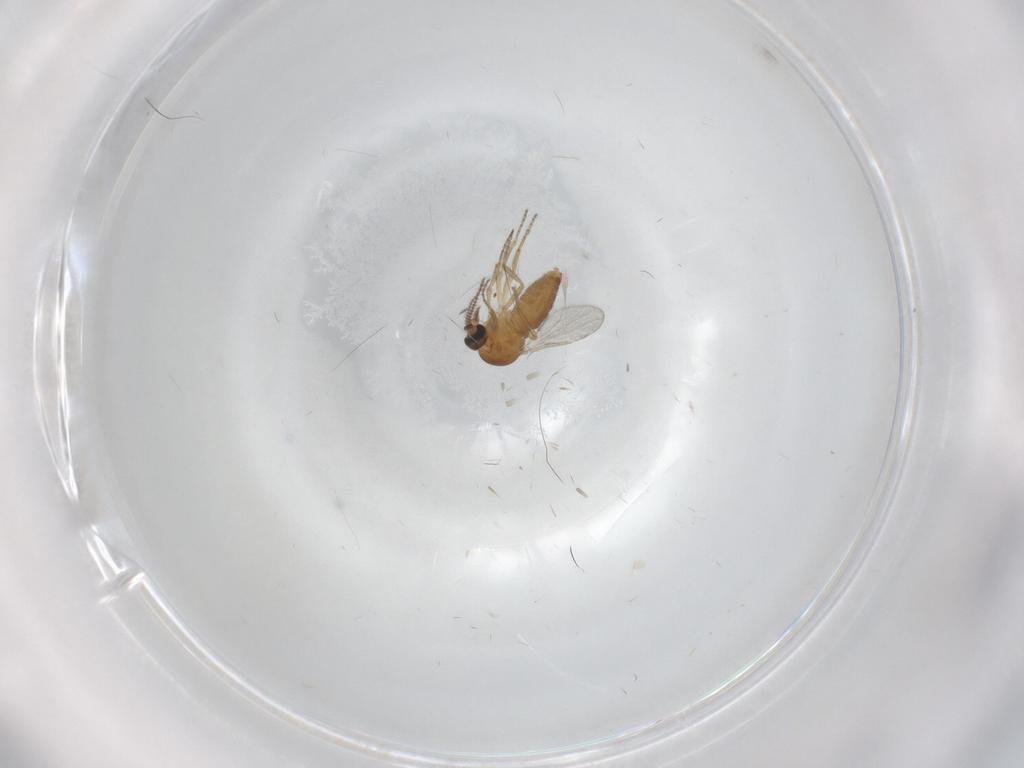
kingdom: Animalia
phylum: Arthropoda
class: Insecta
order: Diptera
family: Ceratopogonidae
